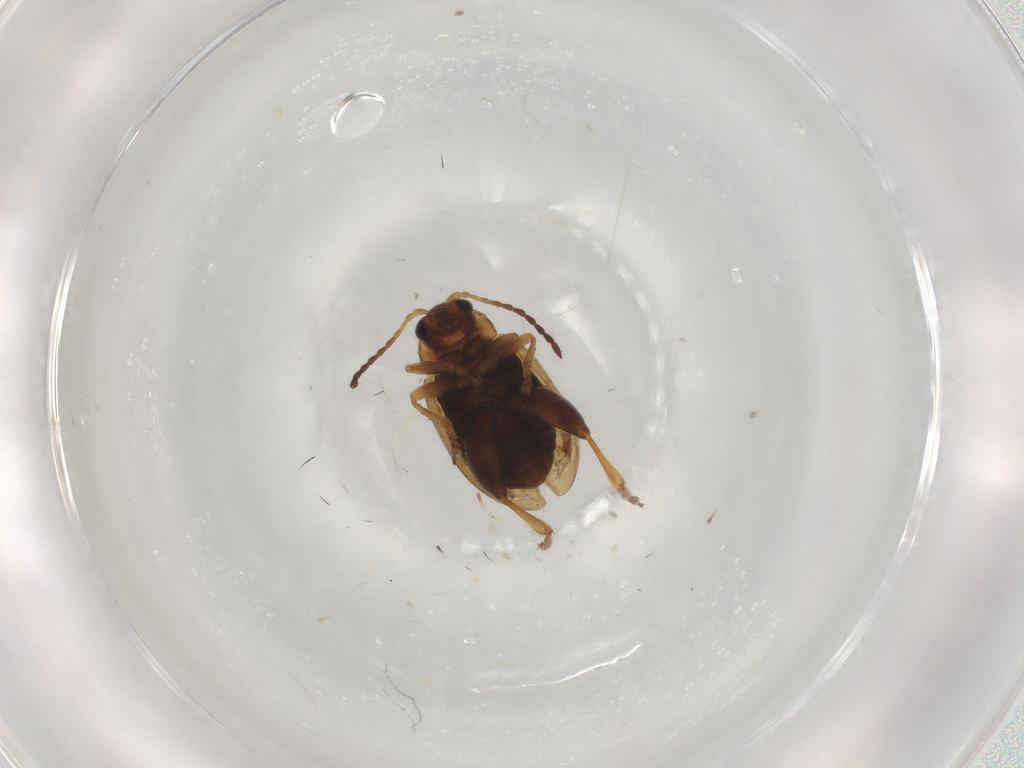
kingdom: Animalia
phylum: Arthropoda
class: Insecta
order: Coleoptera
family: Chrysomelidae
